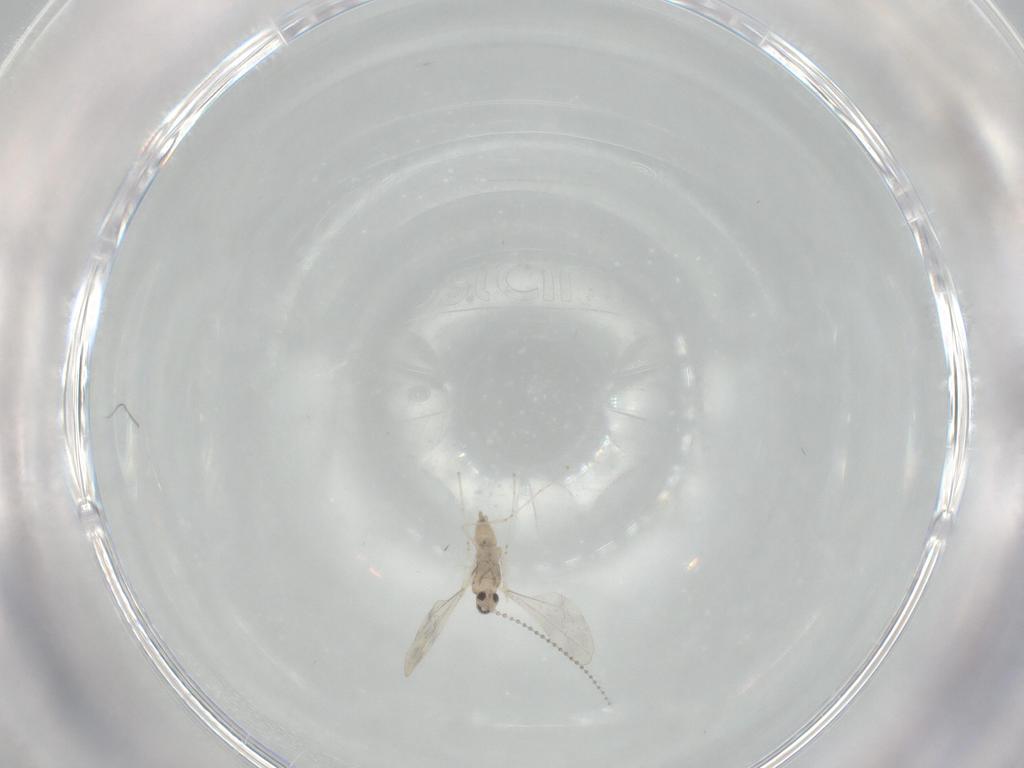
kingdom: Animalia
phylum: Arthropoda
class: Insecta
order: Diptera
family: Cecidomyiidae
